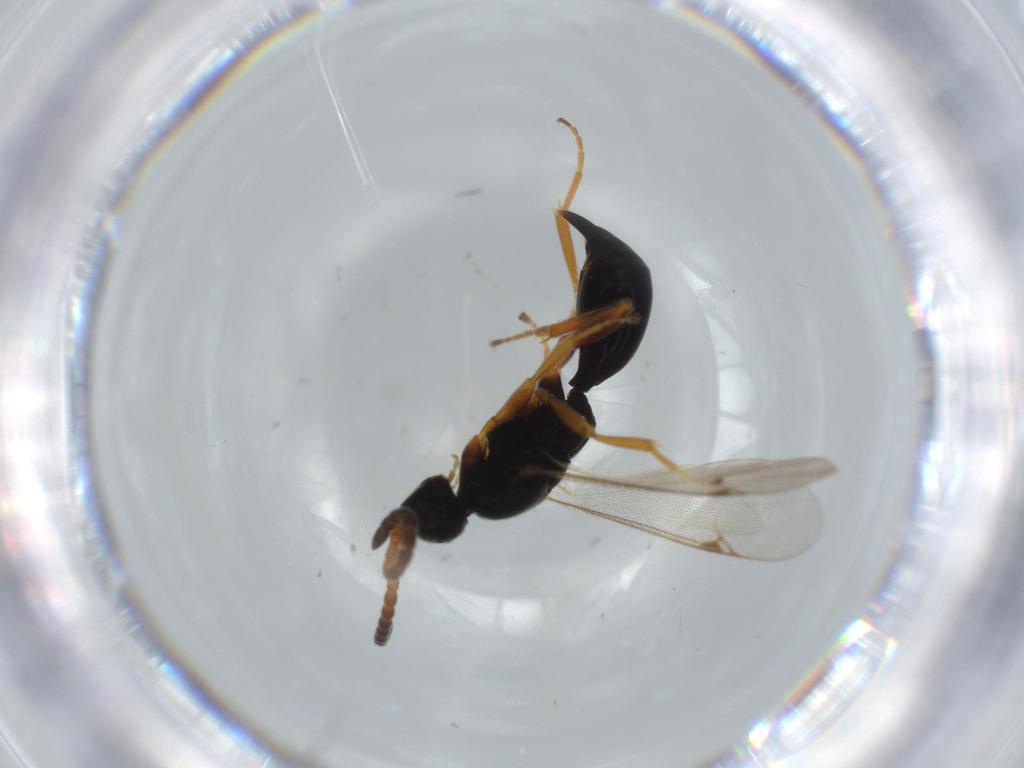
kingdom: Animalia
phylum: Arthropoda
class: Insecta
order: Hymenoptera
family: Proctotrupidae
